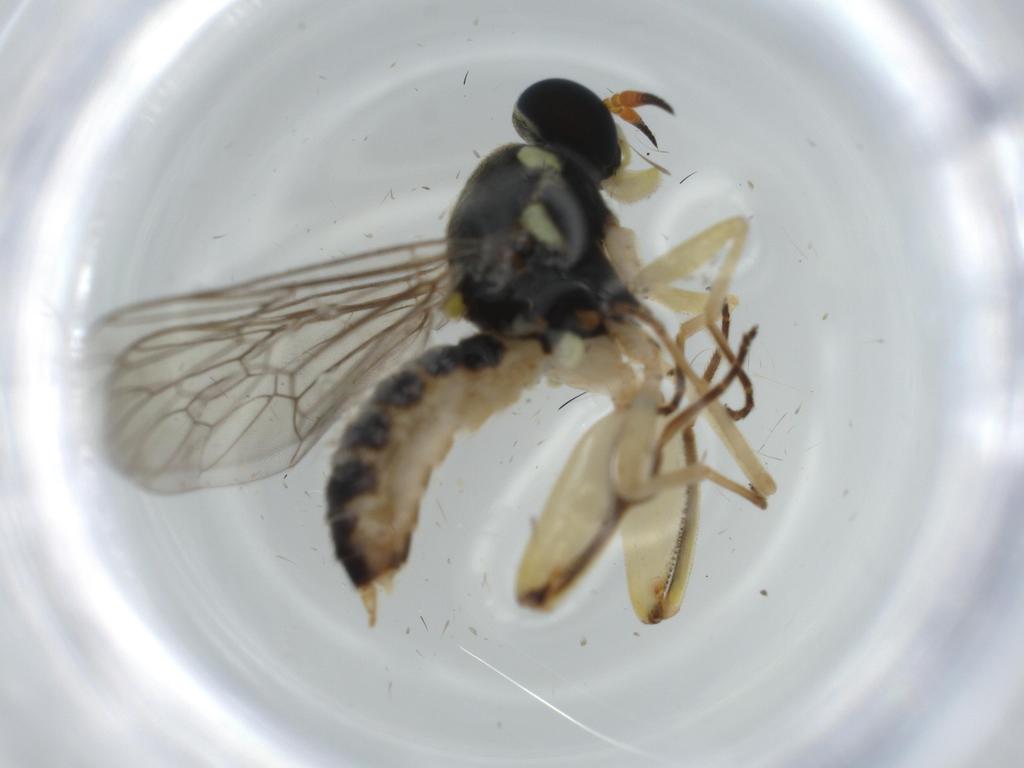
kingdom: Animalia
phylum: Arthropoda
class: Insecta
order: Diptera
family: Xylomyidae
